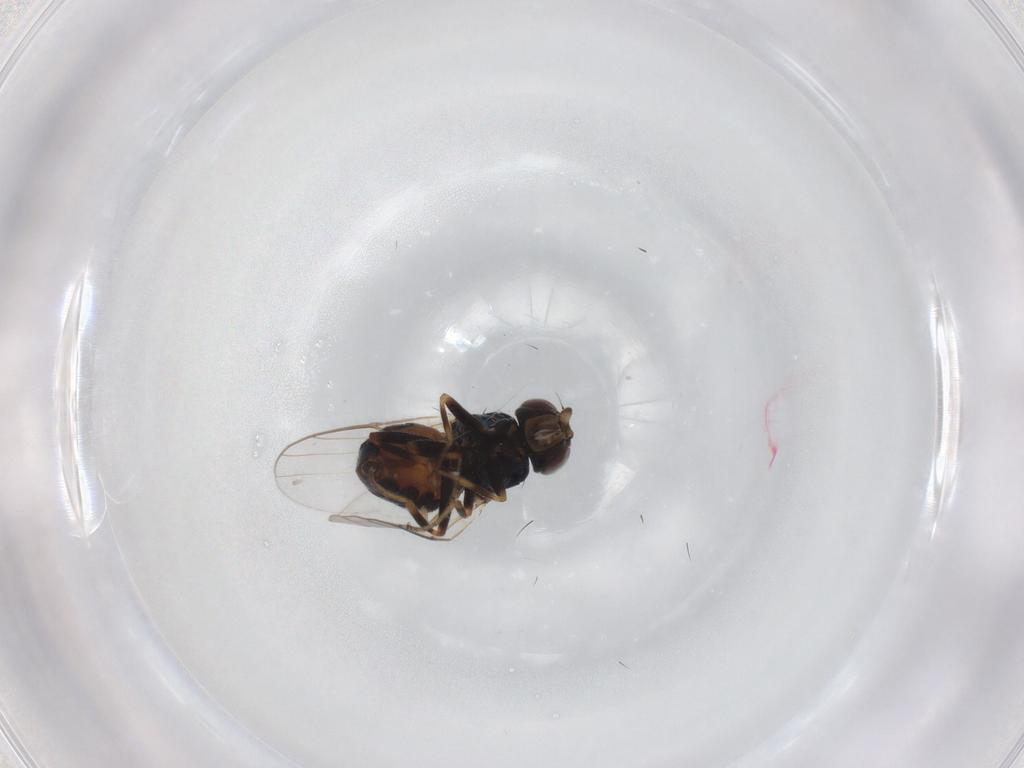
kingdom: Animalia
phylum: Arthropoda
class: Insecta
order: Diptera
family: Chloropidae
